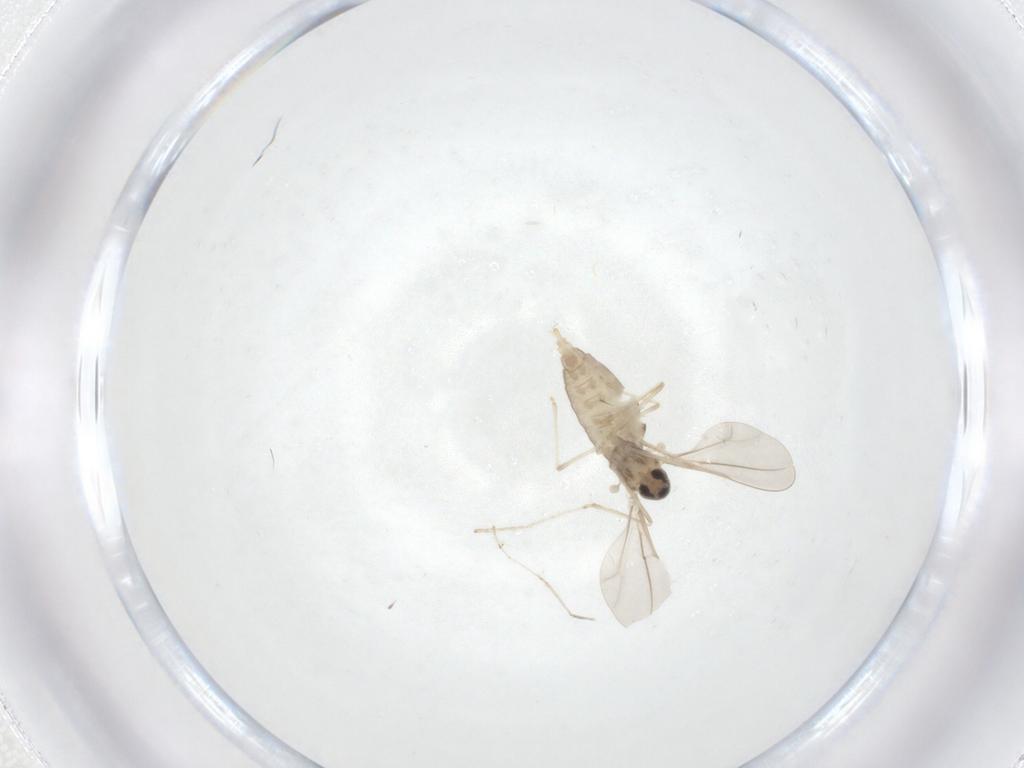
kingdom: Animalia
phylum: Arthropoda
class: Insecta
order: Diptera
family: Cecidomyiidae
